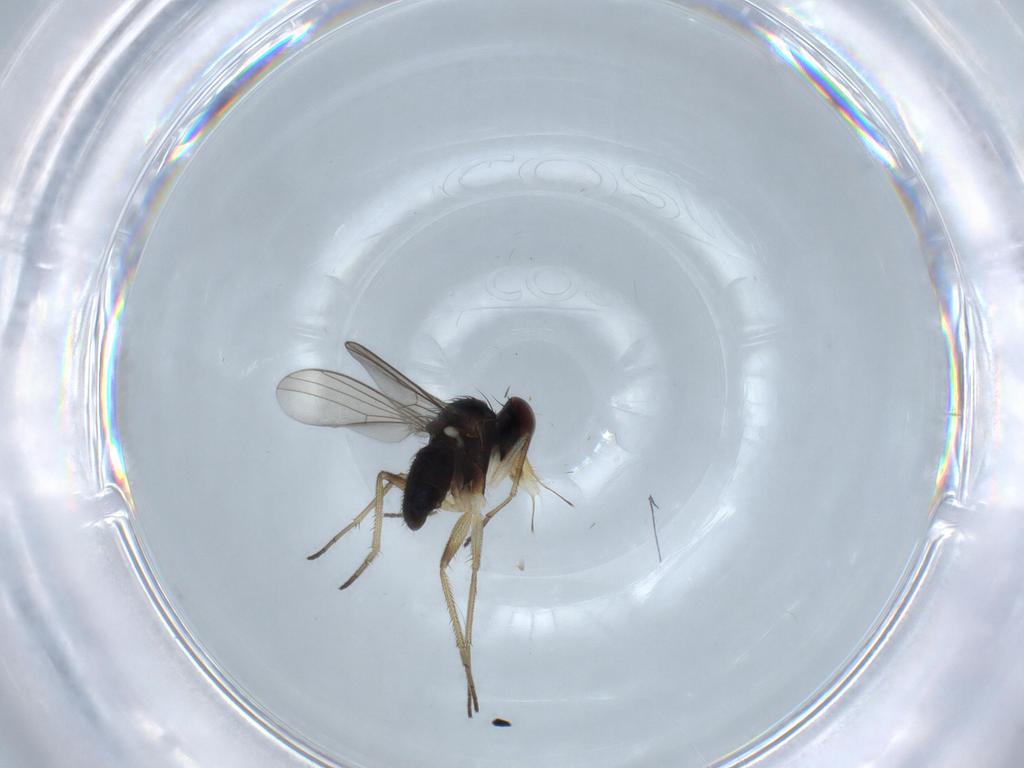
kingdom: Animalia
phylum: Arthropoda
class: Insecta
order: Diptera
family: Dolichopodidae
